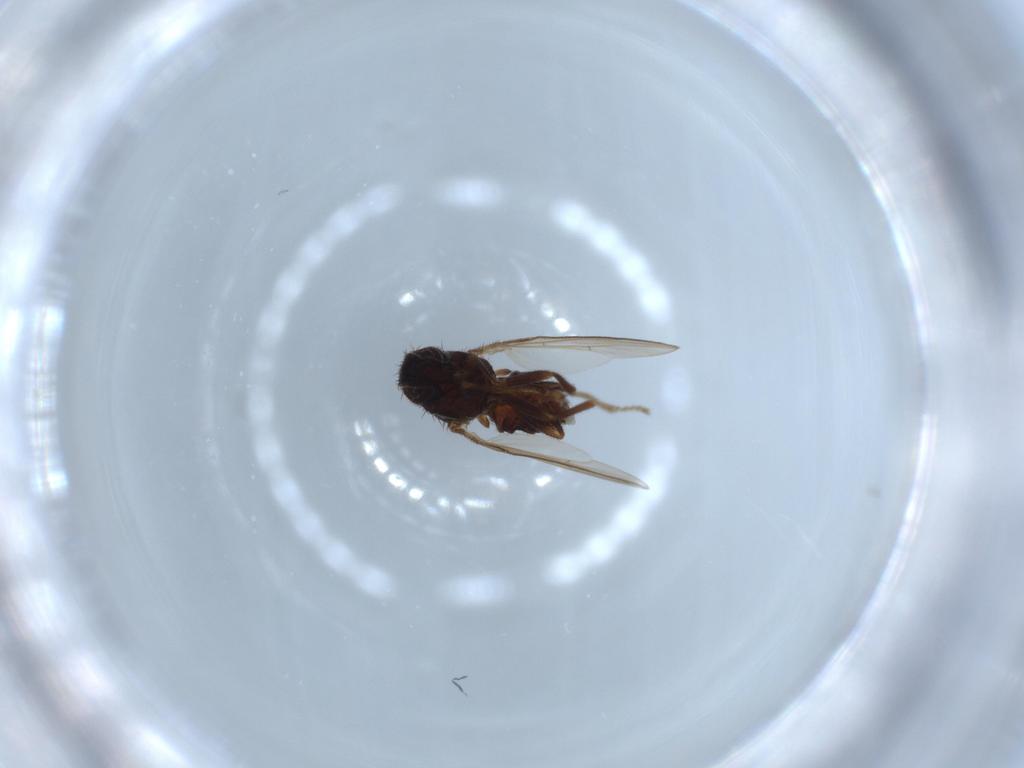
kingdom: Animalia
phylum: Arthropoda
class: Insecta
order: Diptera
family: Drosophilidae
